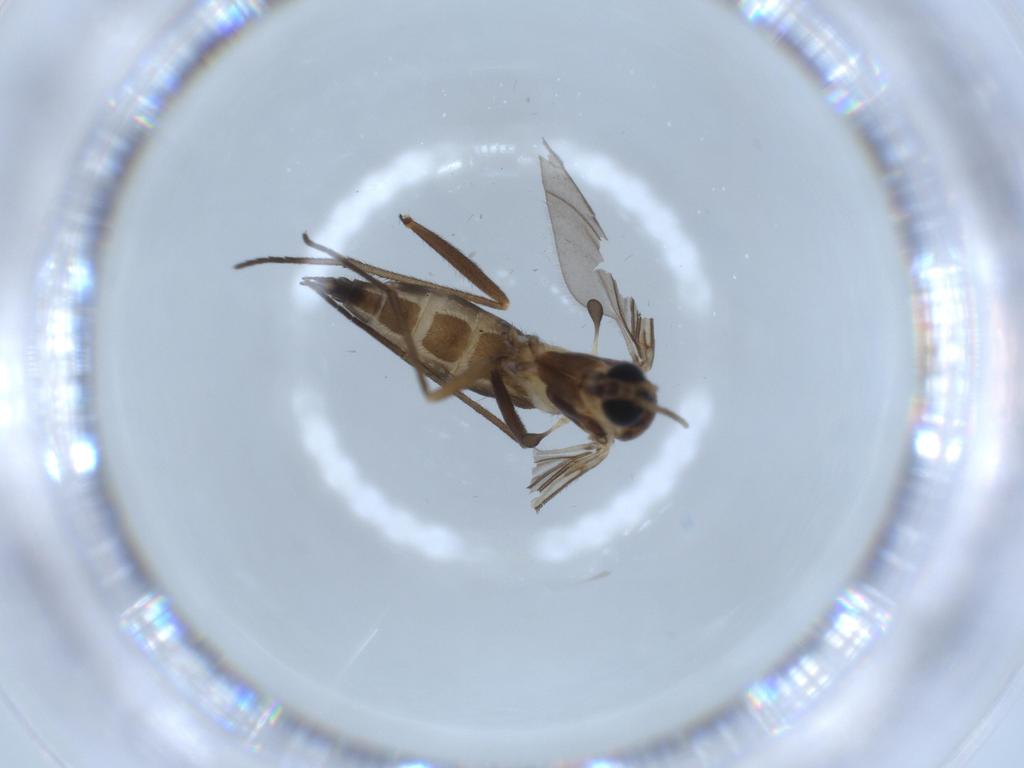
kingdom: Animalia
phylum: Arthropoda
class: Insecta
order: Diptera
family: Sciaridae
